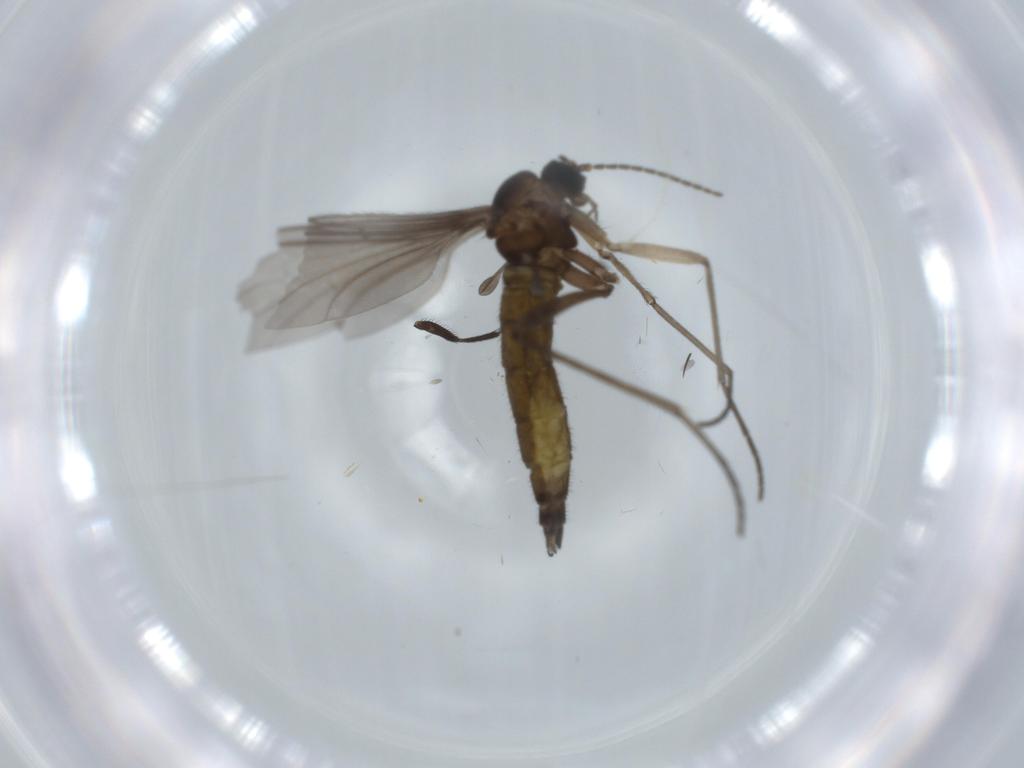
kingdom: Animalia
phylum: Arthropoda
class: Insecta
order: Diptera
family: Sciaridae
